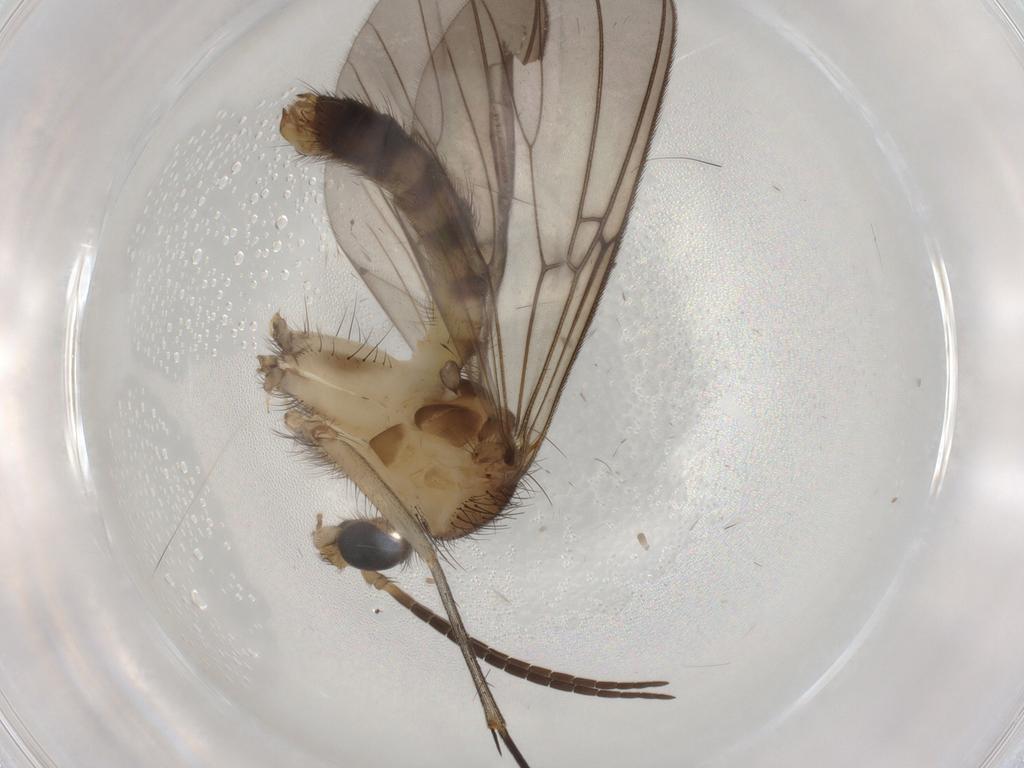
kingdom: Animalia
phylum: Arthropoda
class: Insecta
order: Diptera
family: Mycetophilidae
